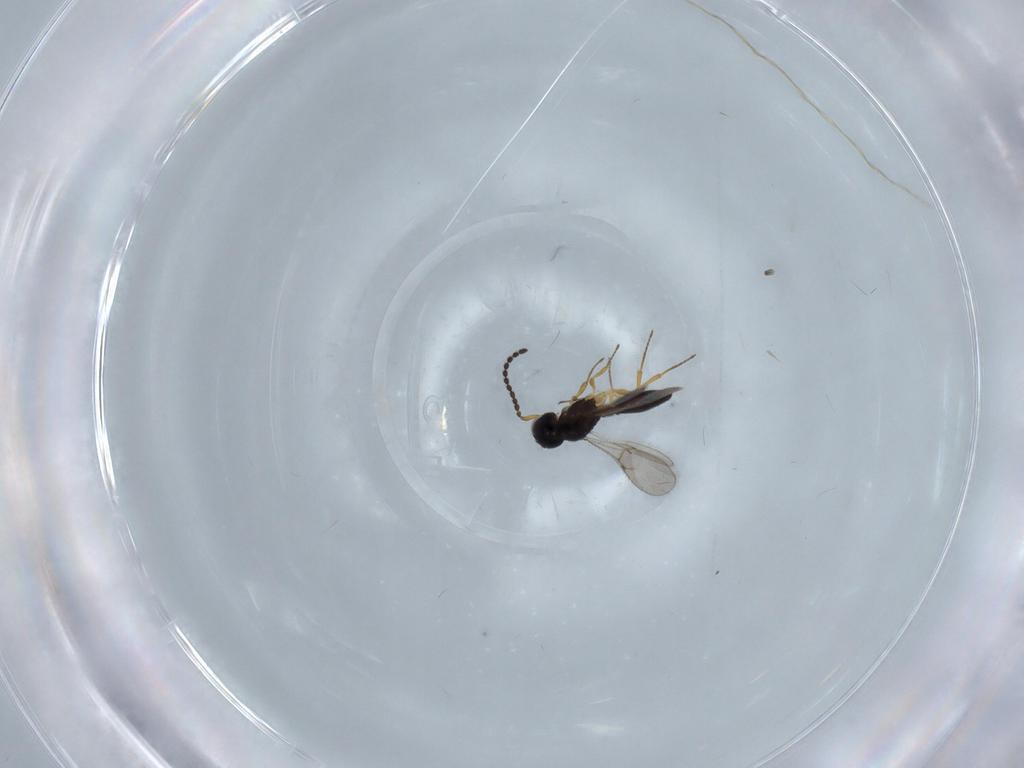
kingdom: Animalia
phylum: Arthropoda
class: Insecta
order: Hymenoptera
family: Scelionidae
